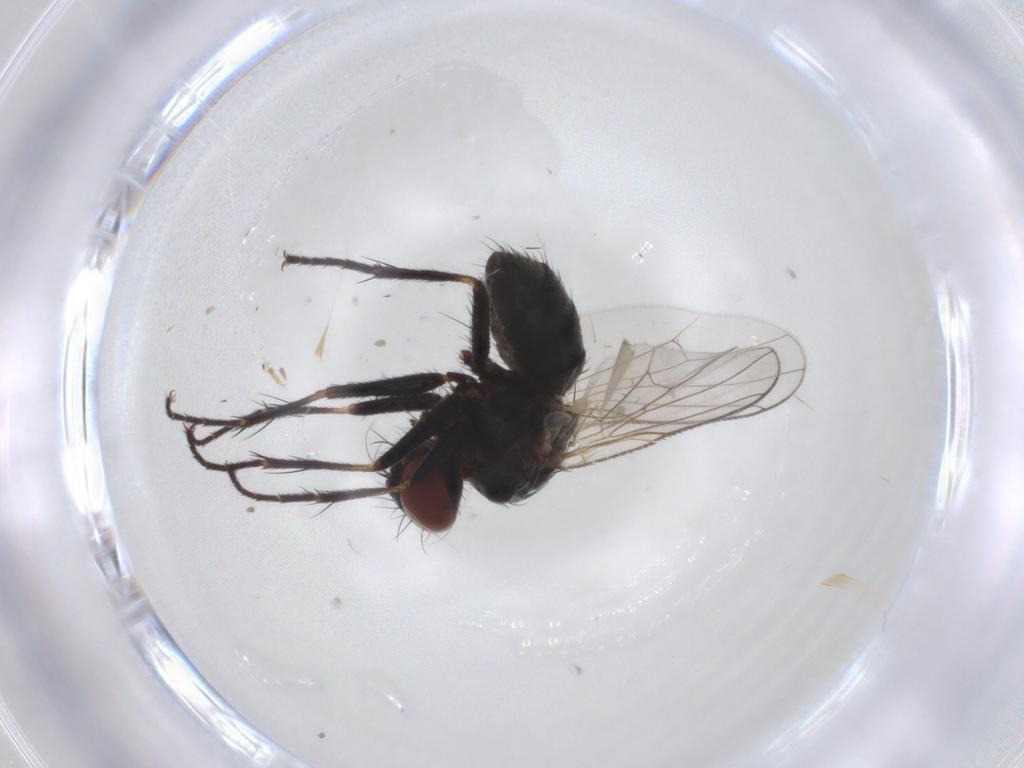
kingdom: Animalia
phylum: Arthropoda
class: Insecta
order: Diptera
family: Muscidae
